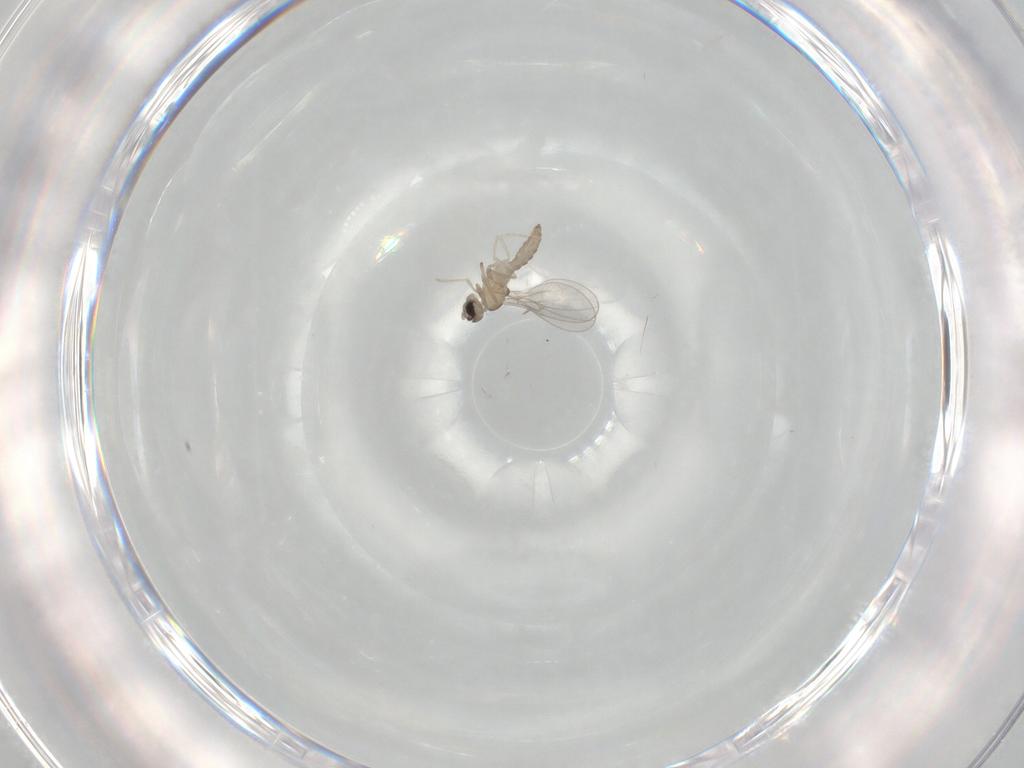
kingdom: Animalia
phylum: Arthropoda
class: Insecta
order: Diptera
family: Cecidomyiidae
